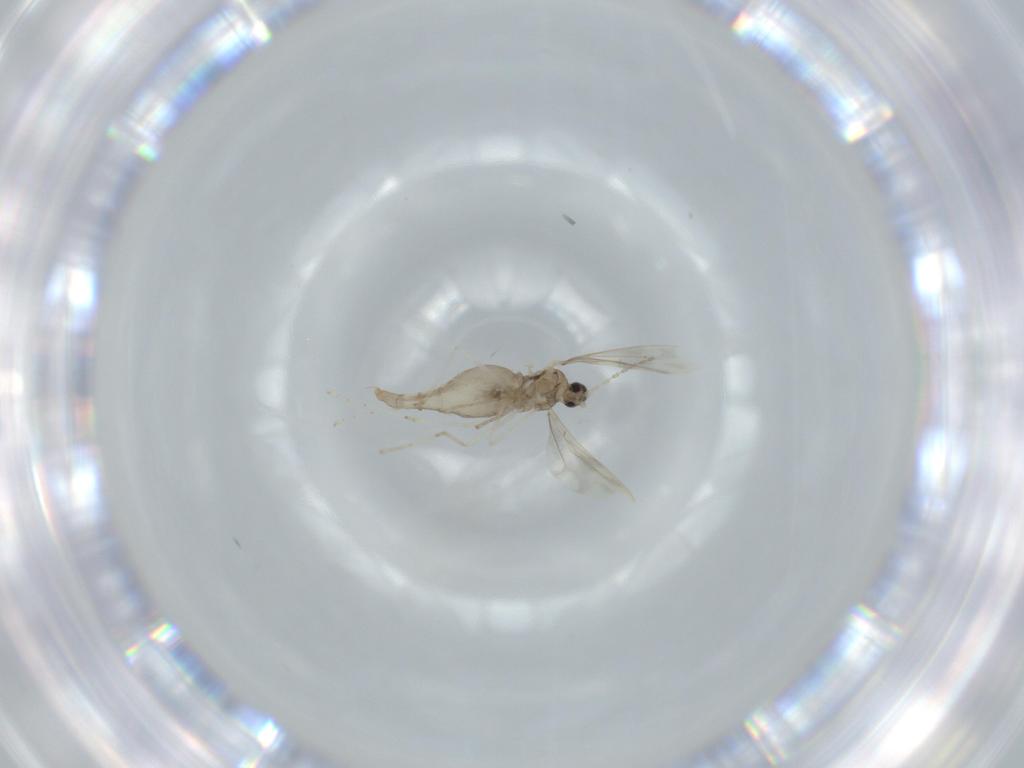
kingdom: Animalia
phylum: Arthropoda
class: Insecta
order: Diptera
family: Cecidomyiidae
